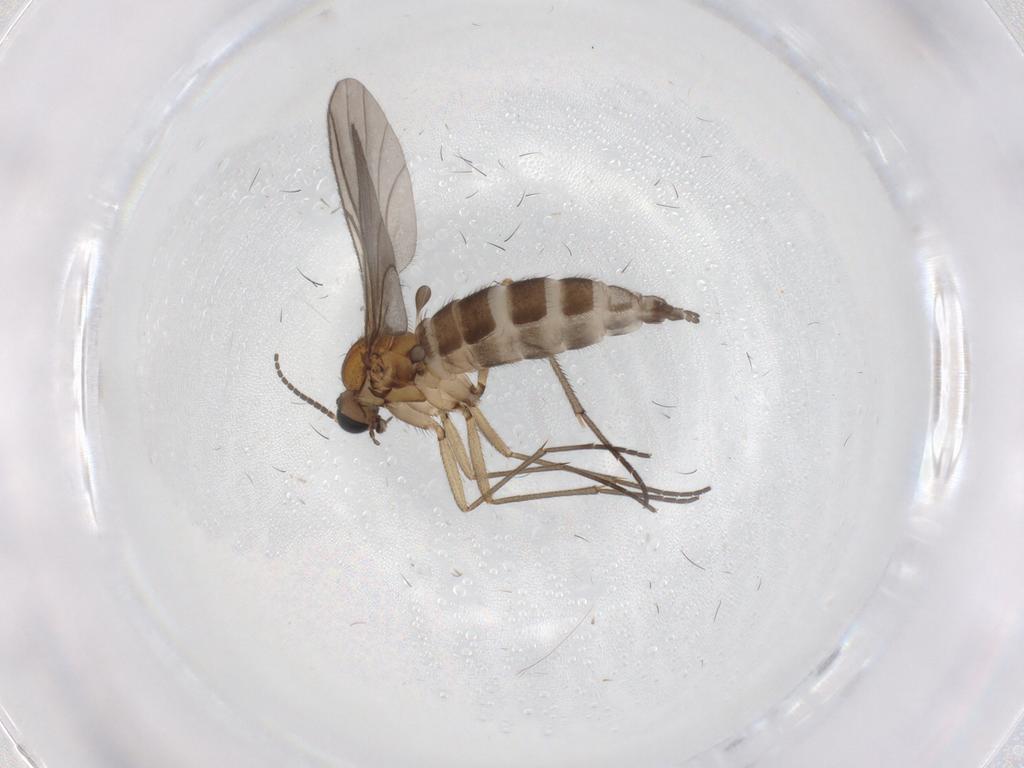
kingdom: Animalia
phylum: Arthropoda
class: Insecta
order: Diptera
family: Sciaridae
